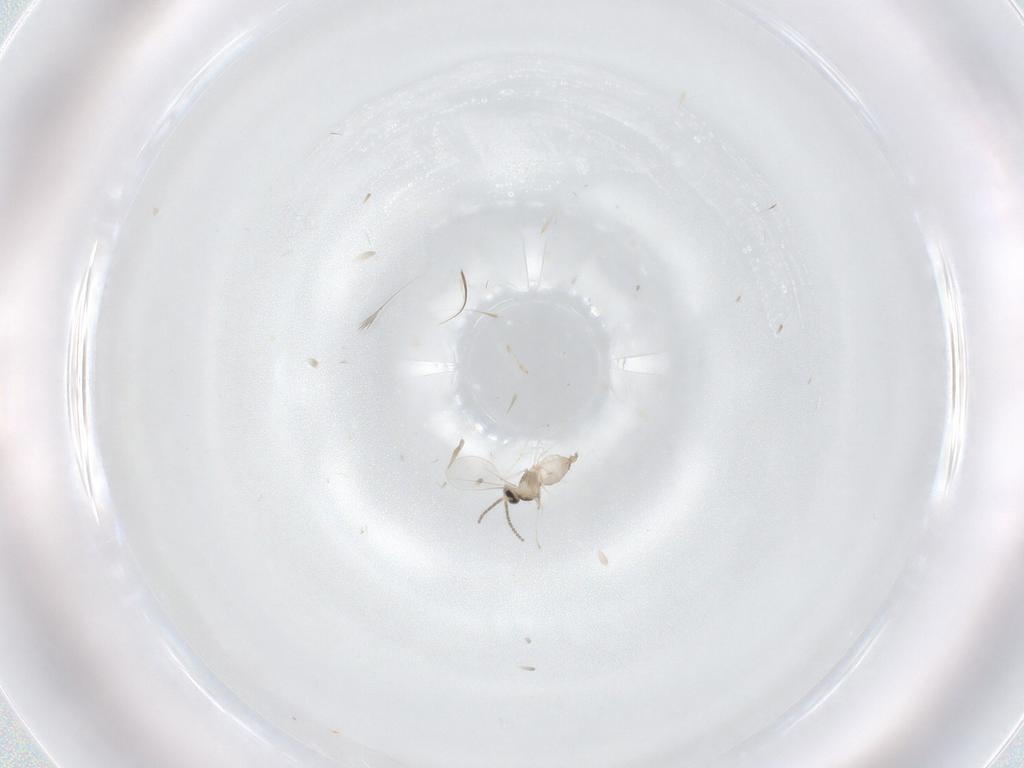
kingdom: Animalia
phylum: Arthropoda
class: Insecta
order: Diptera
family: Cecidomyiidae
